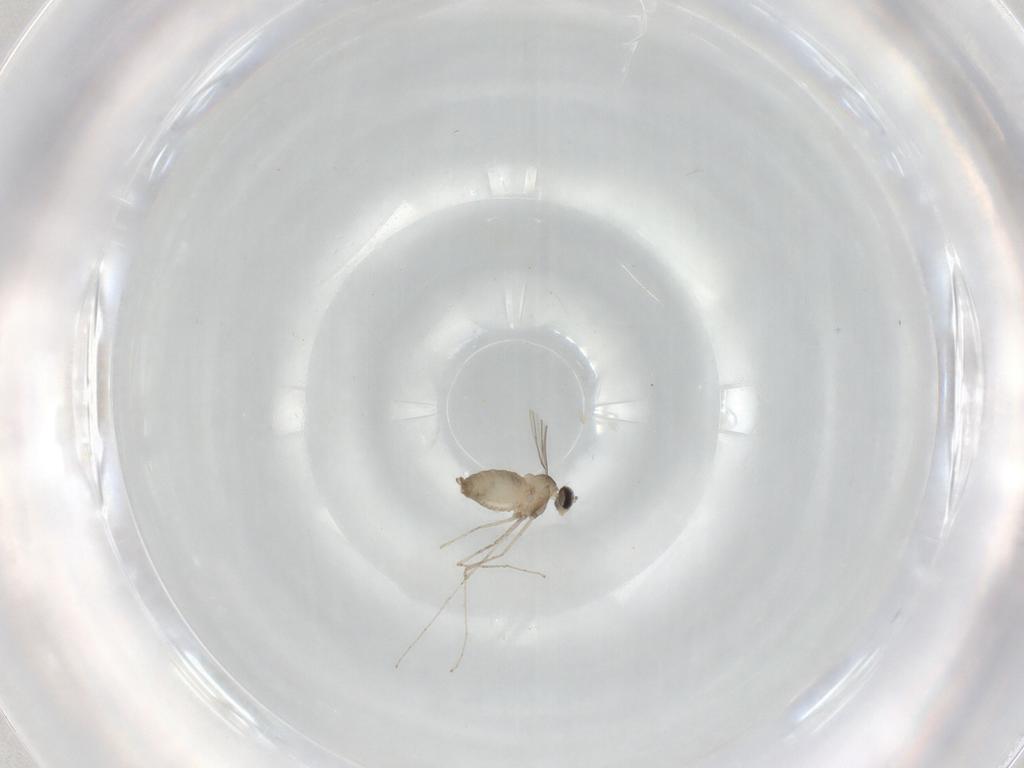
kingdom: Animalia
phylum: Arthropoda
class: Insecta
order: Diptera
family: Cecidomyiidae
